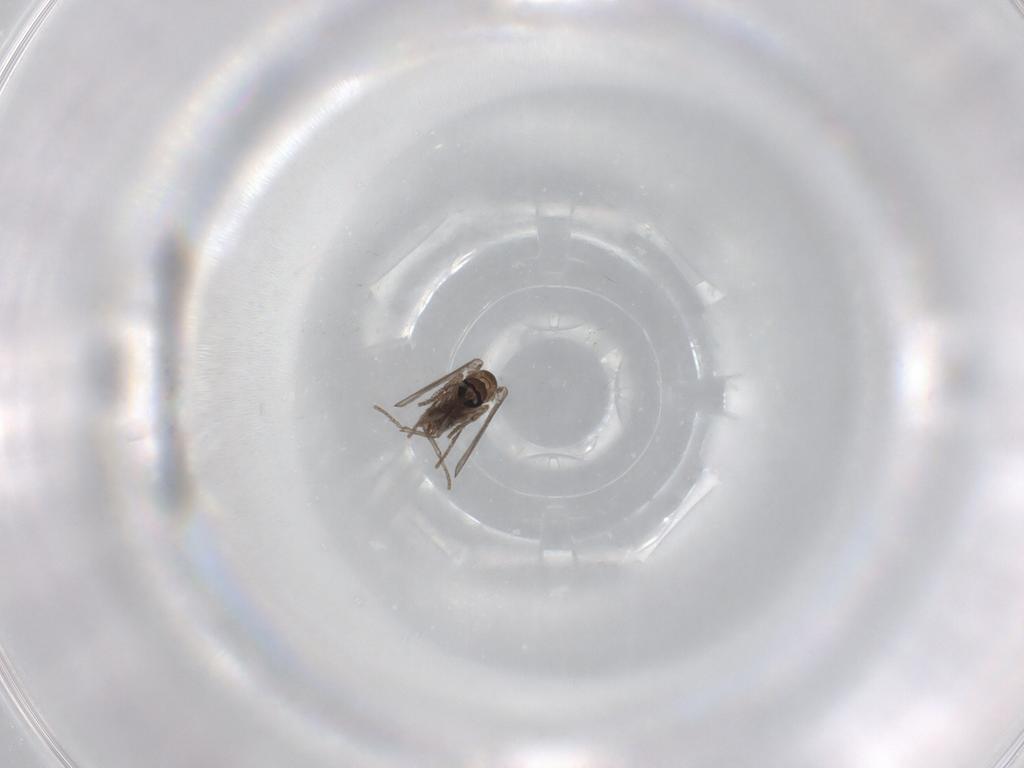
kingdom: Animalia
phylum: Arthropoda
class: Insecta
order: Diptera
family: Psychodidae
